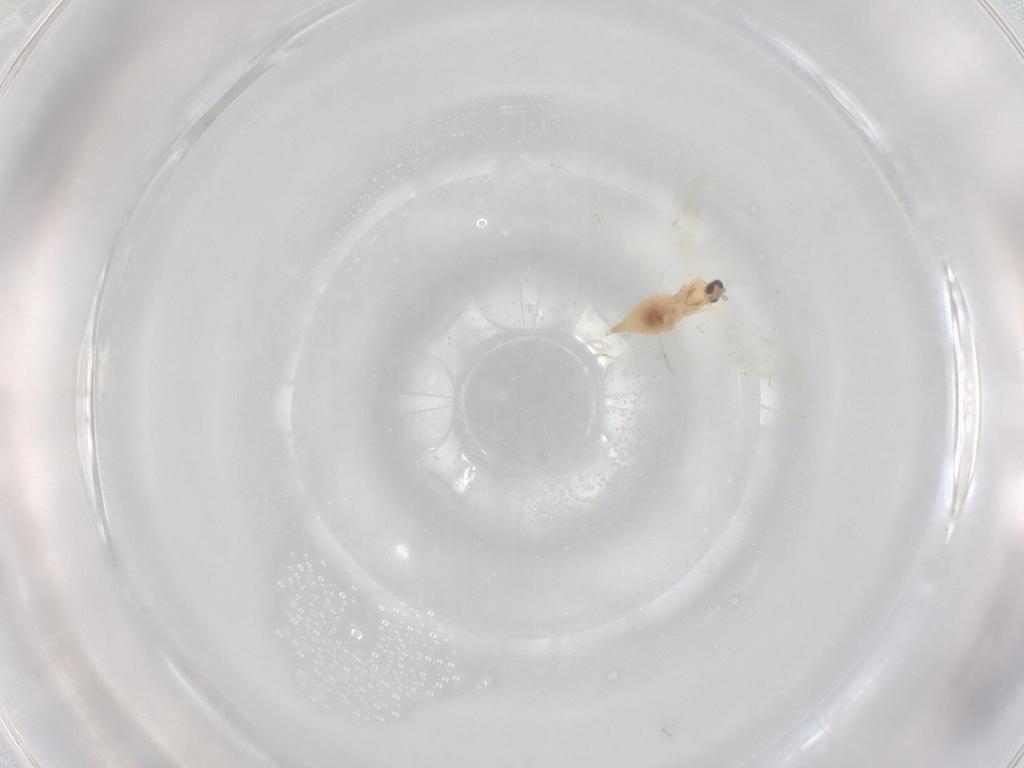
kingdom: Animalia
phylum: Arthropoda
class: Insecta
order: Diptera
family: Cecidomyiidae
